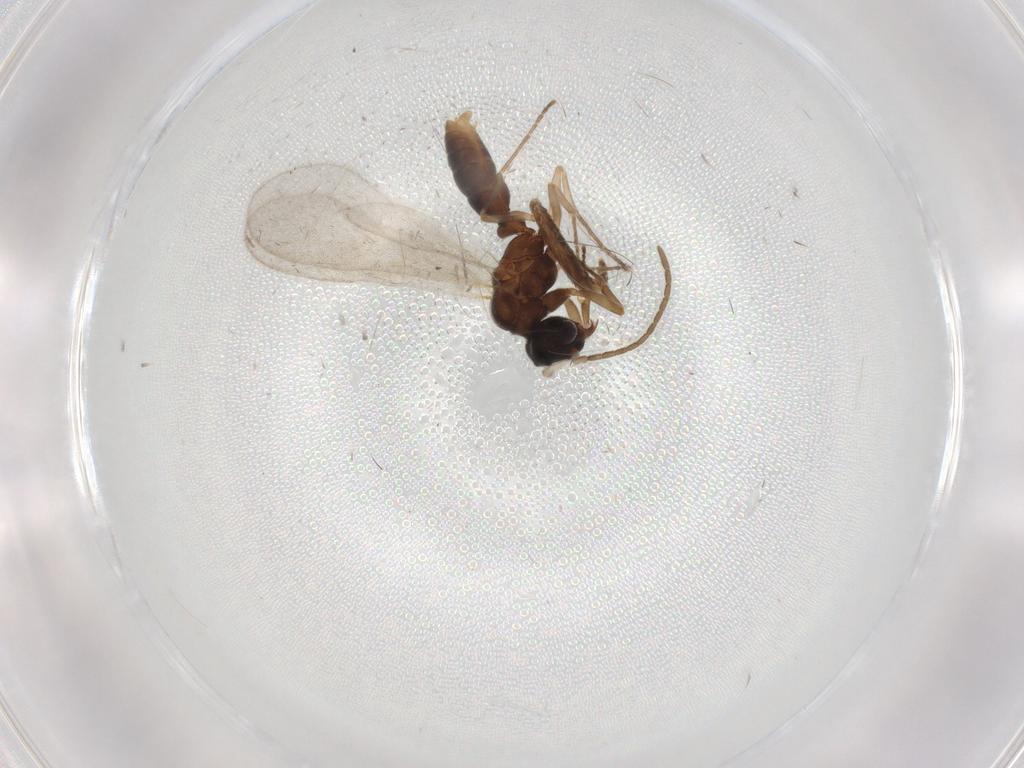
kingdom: Animalia
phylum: Arthropoda
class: Insecta
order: Hymenoptera
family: Formicidae
